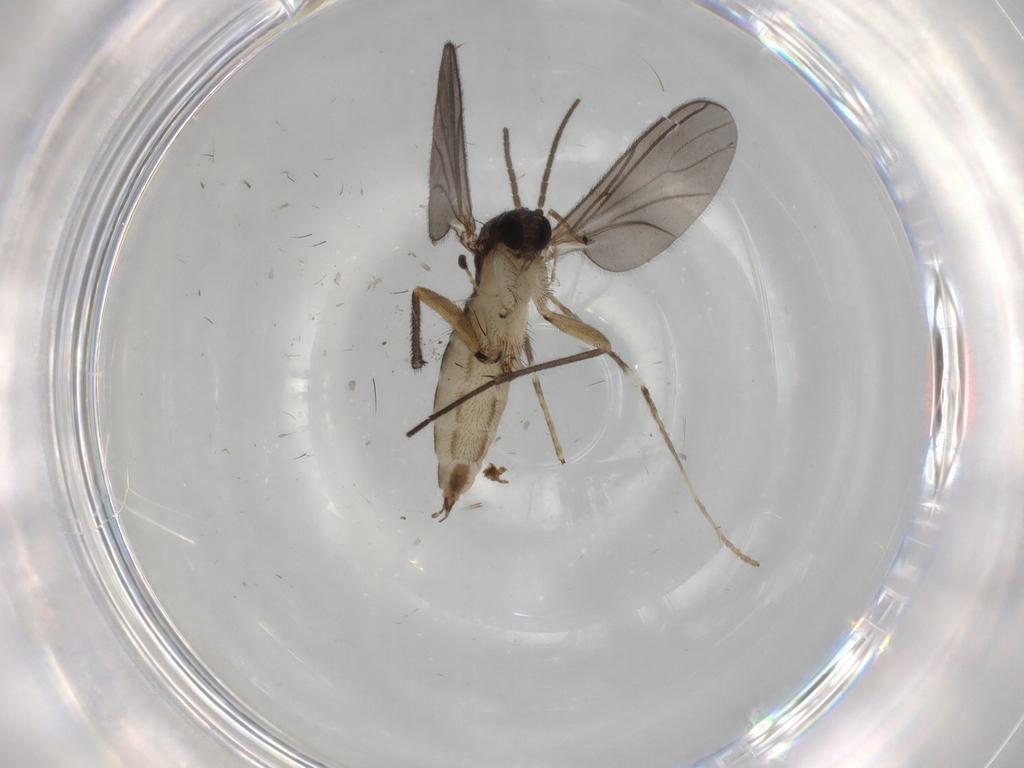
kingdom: Animalia
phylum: Arthropoda
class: Insecta
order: Diptera
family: Sciaridae
